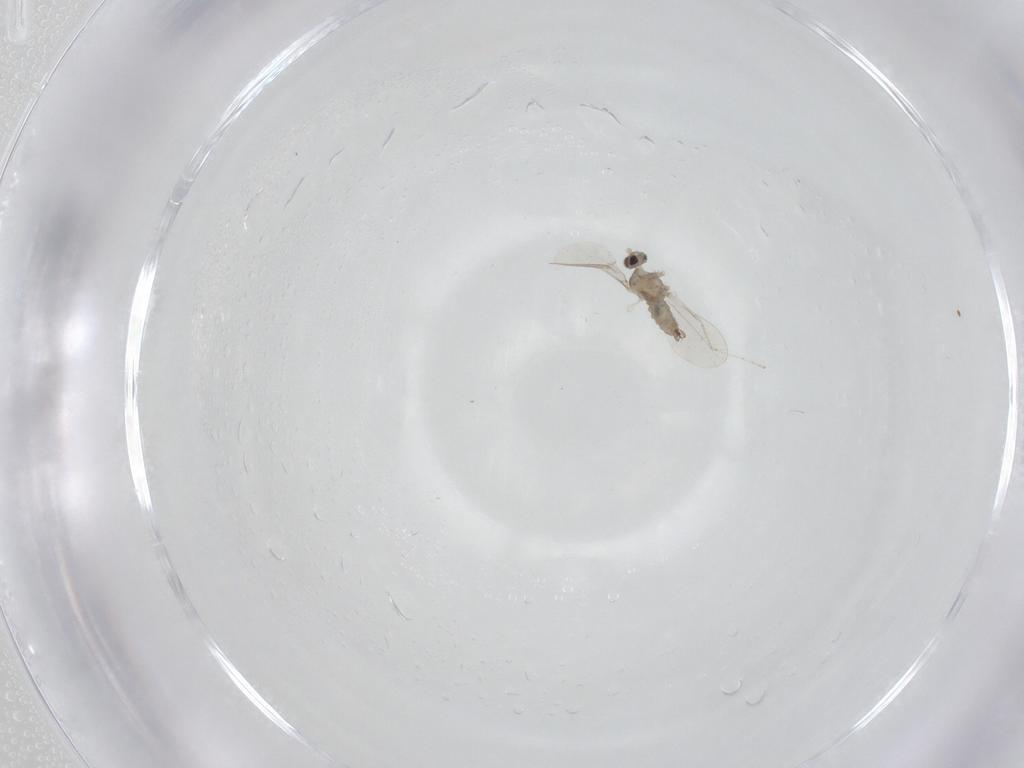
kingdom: Animalia
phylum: Arthropoda
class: Insecta
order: Diptera
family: Cecidomyiidae
